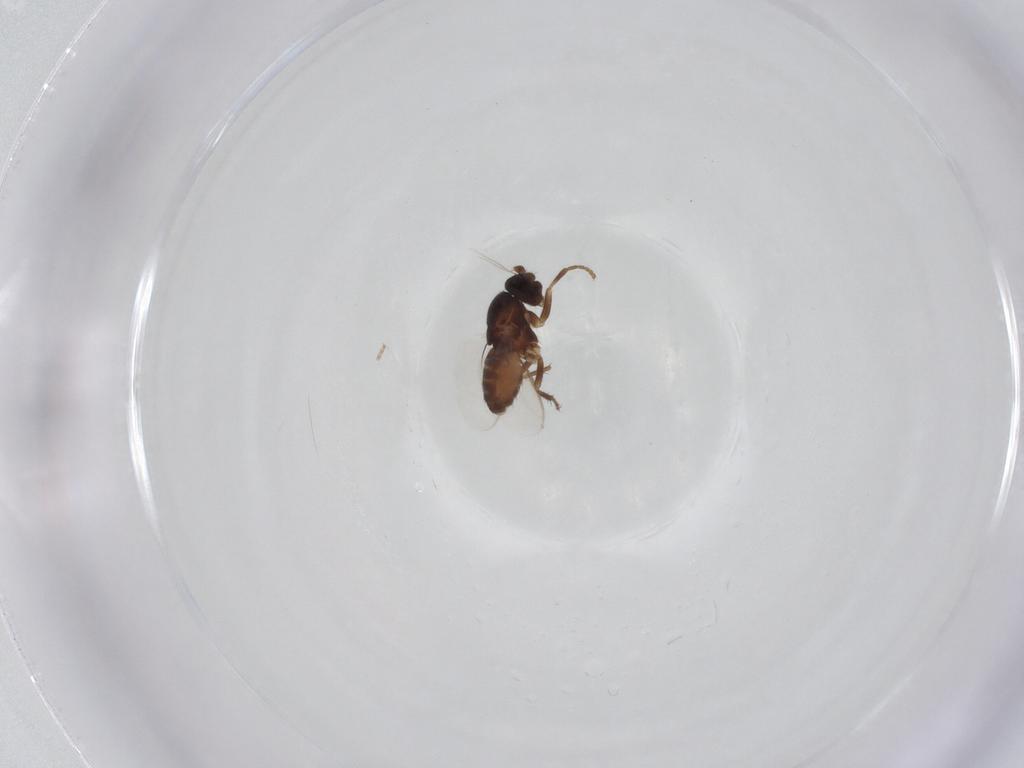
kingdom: Animalia
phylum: Arthropoda
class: Insecta
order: Diptera
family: Sphaeroceridae
